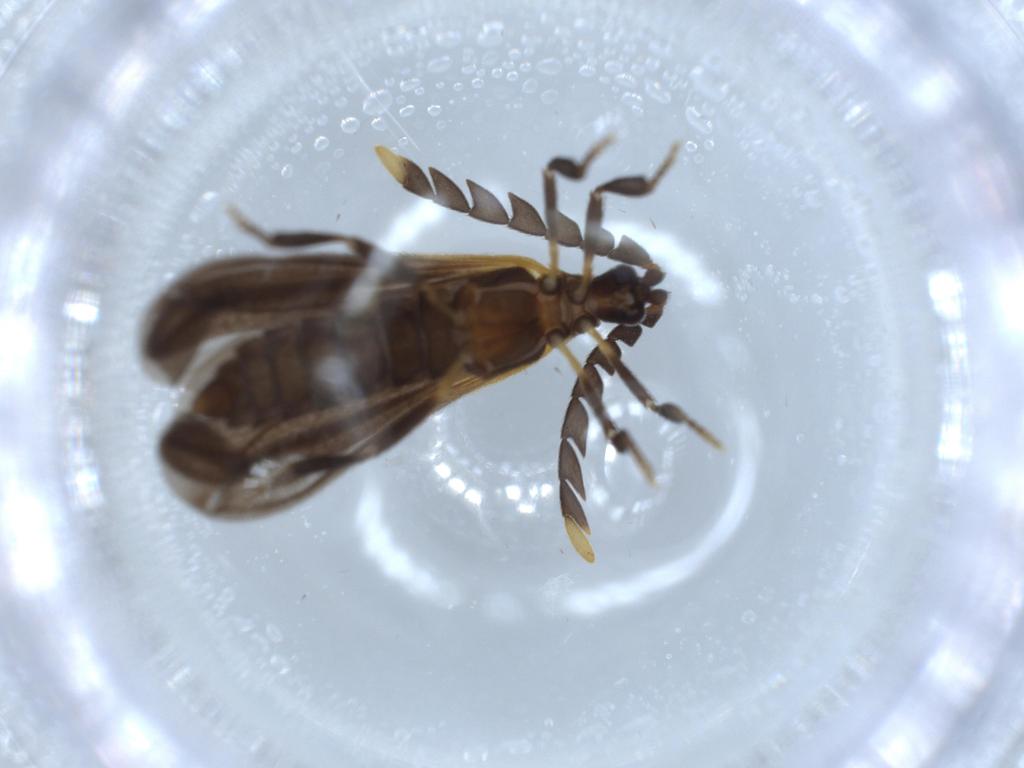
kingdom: Animalia
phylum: Arthropoda
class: Insecta
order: Coleoptera
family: Lycidae
